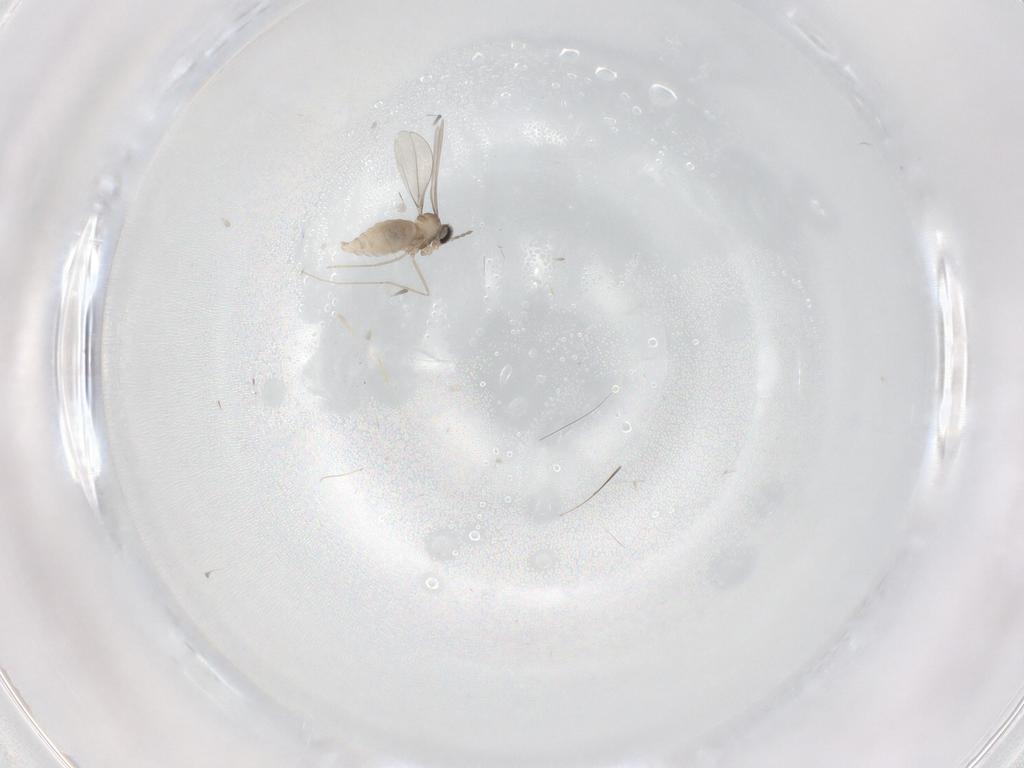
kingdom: Animalia
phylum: Arthropoda
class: Insecta
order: Diptera
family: Cecidomyiidae
